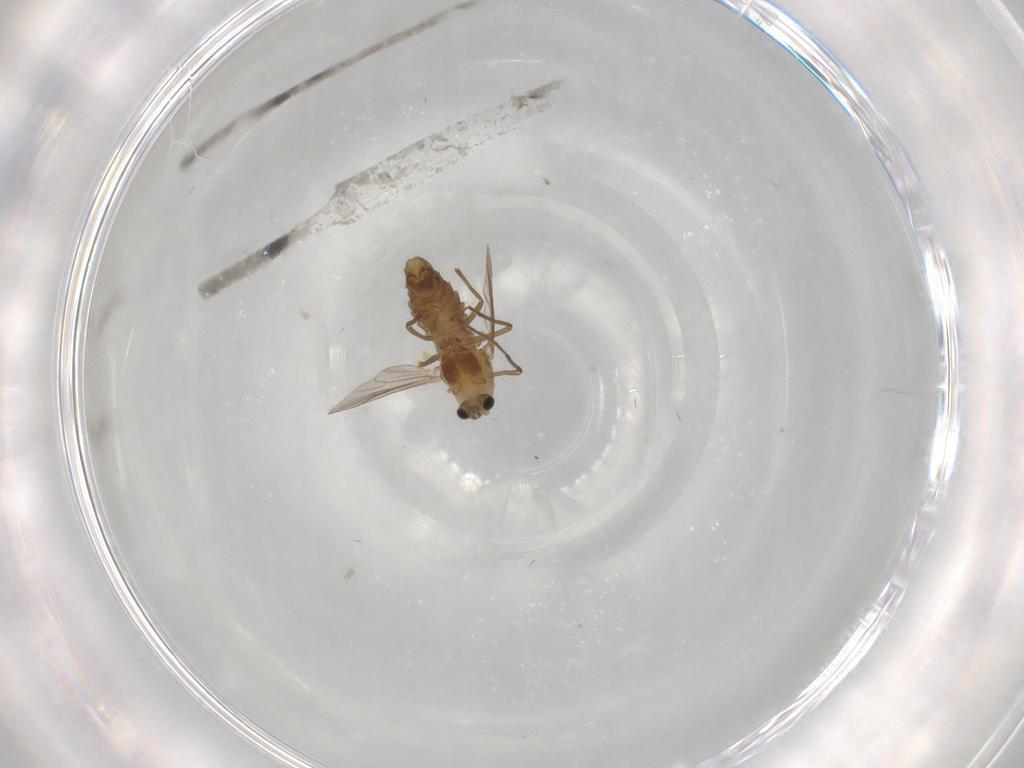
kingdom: Animalia
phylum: Arthropoda
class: Insecta
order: Diptera
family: Chironomidae
